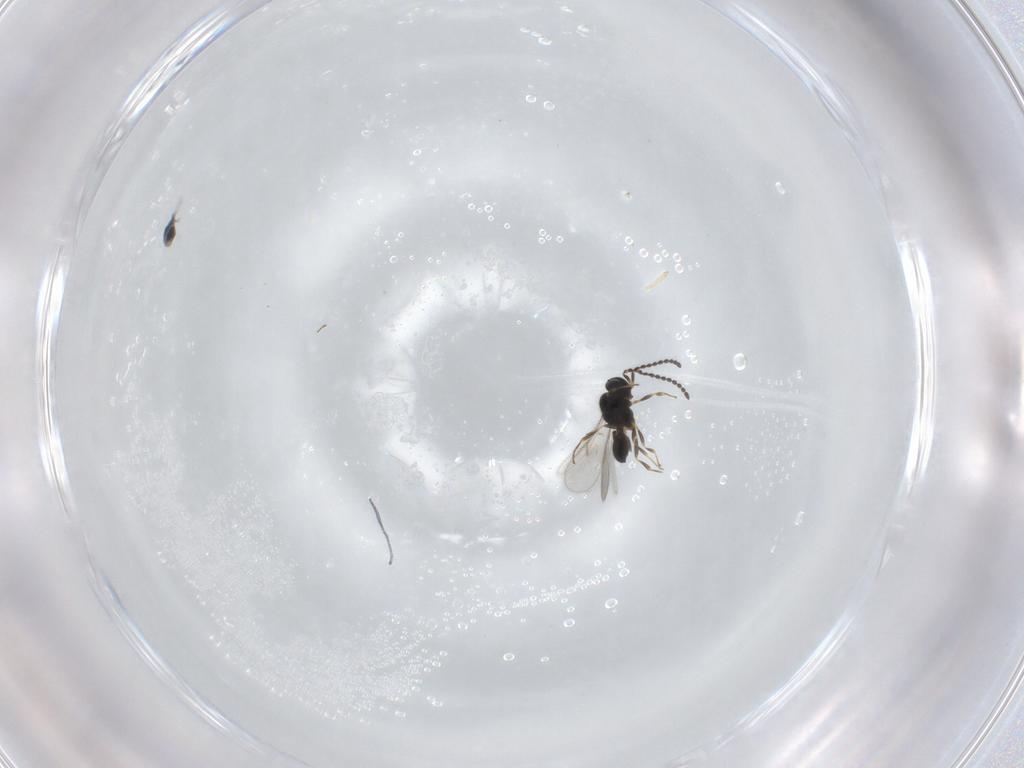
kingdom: Animalia
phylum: Arthropoda
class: Insecta
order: Hymenoptera
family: Scelionidae
